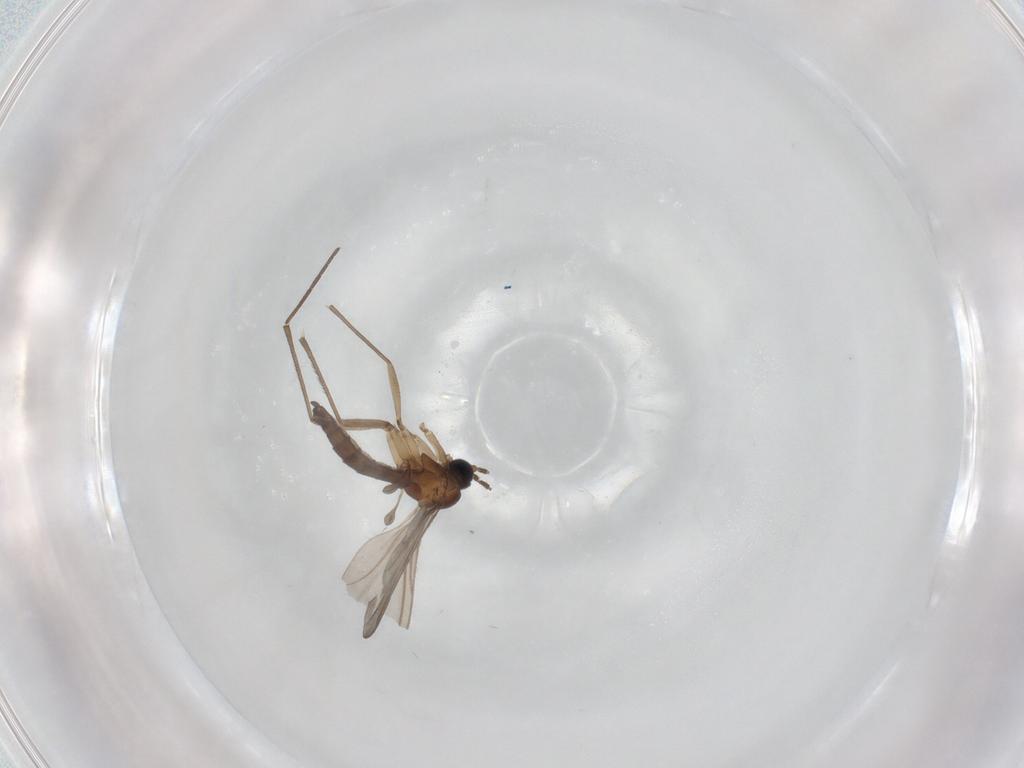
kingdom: Animalia
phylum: Arthropoda
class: Insecta
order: Diptera
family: Sciaridae
